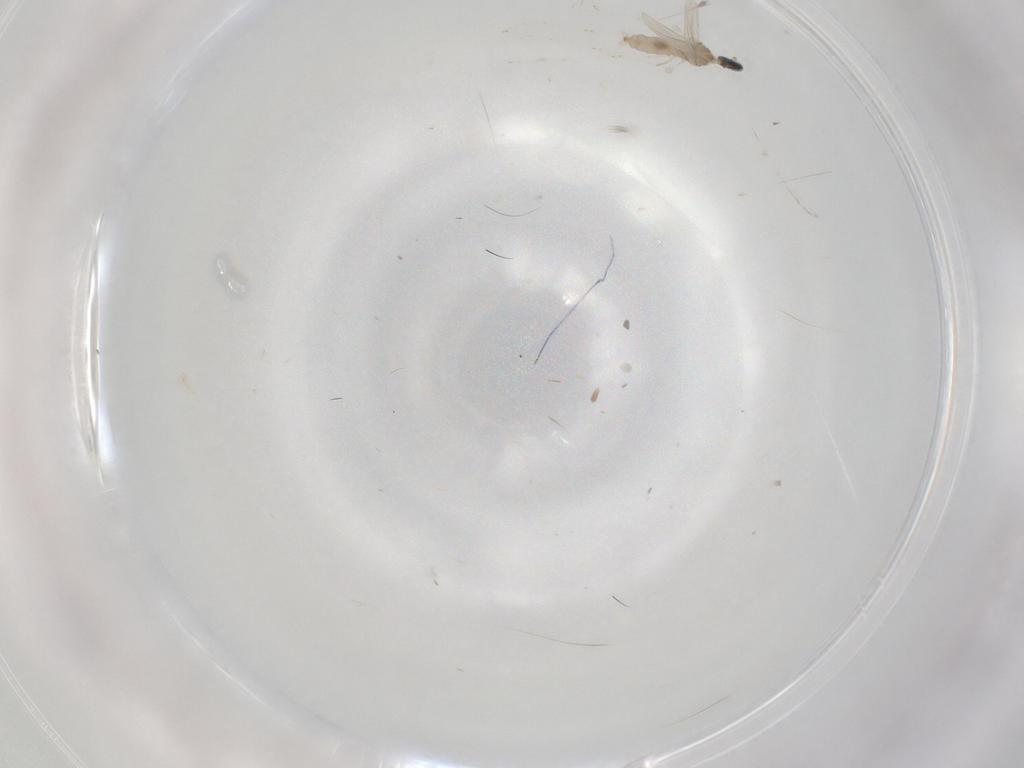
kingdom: Animalia
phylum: Arthropoda
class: Insecta
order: Diptera
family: Cecidomyiidae
